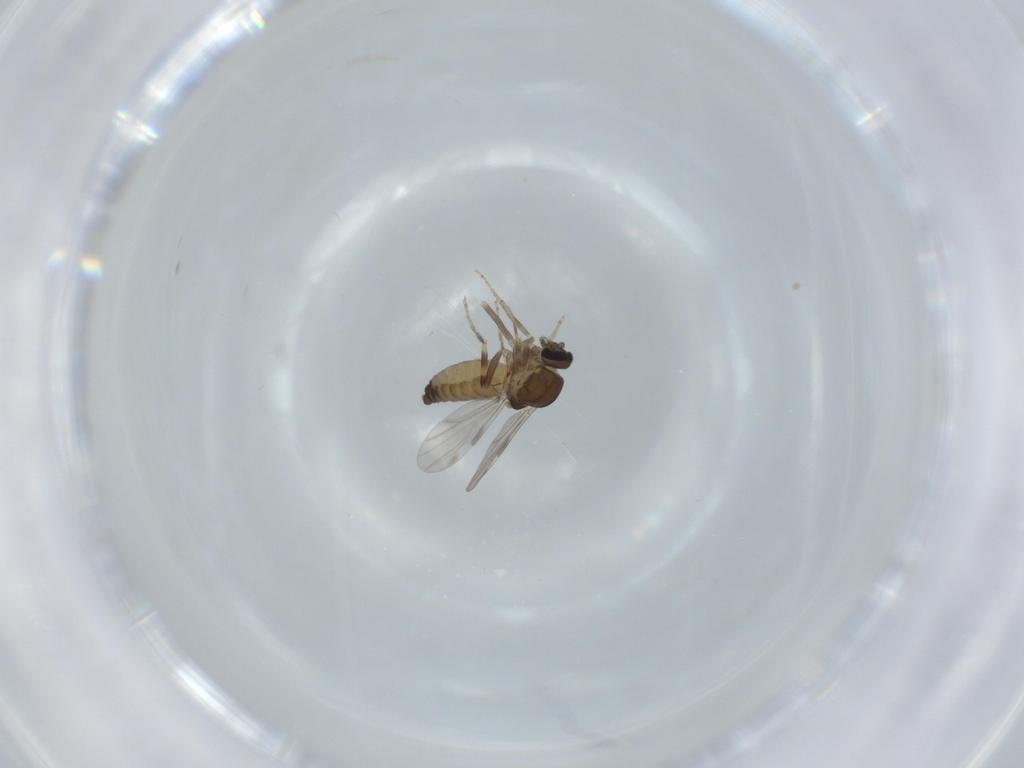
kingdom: Animalia
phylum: Arthropoda
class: Insecta
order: Diptera
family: Ceratopogonidae
